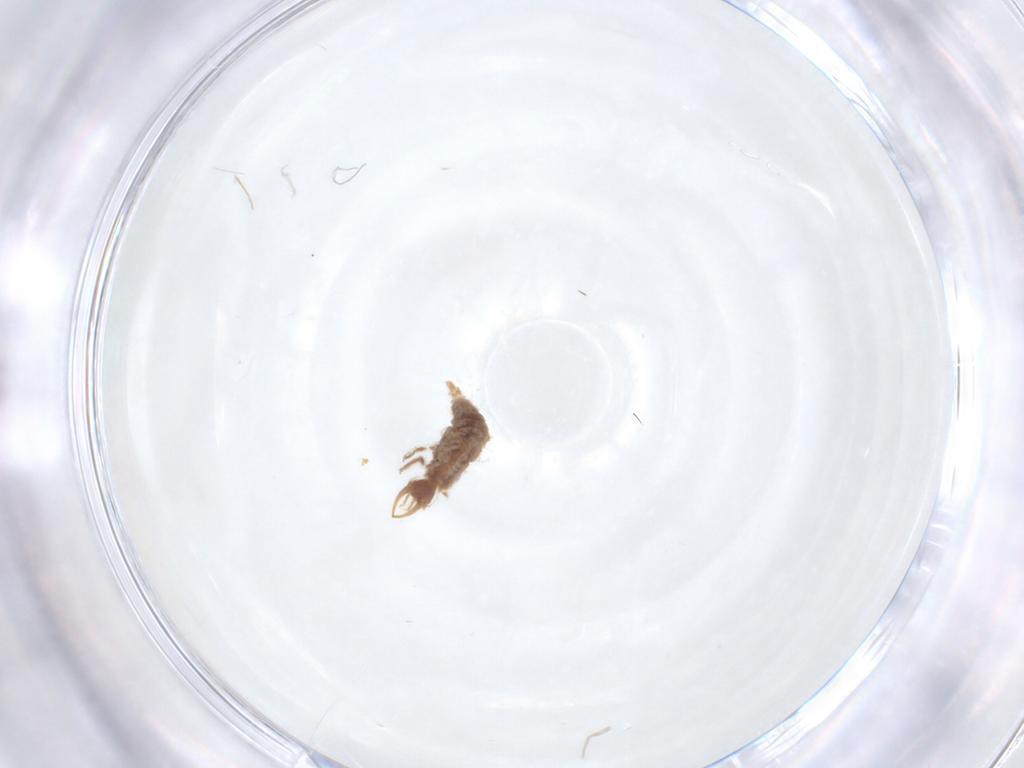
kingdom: Animalia
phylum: Arthropoda
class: Insecta
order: Neuroptera
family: Chrysopidae
